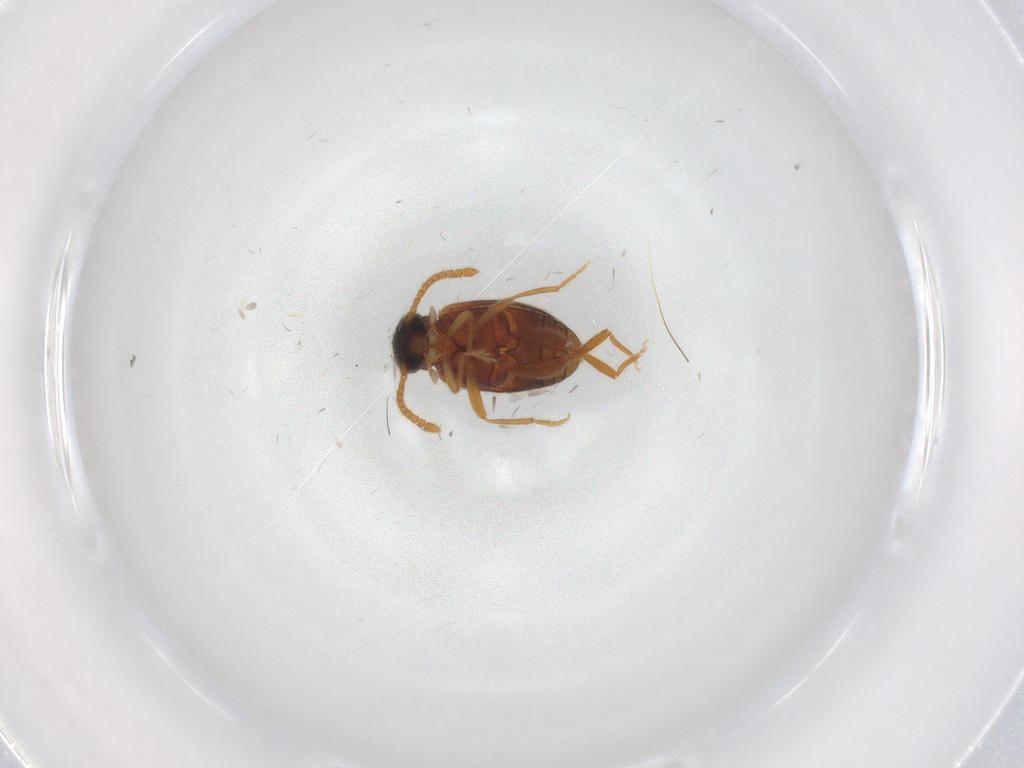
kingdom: Animalia
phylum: Arthropoda
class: Insecta
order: Coleoptera
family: Aderidae
